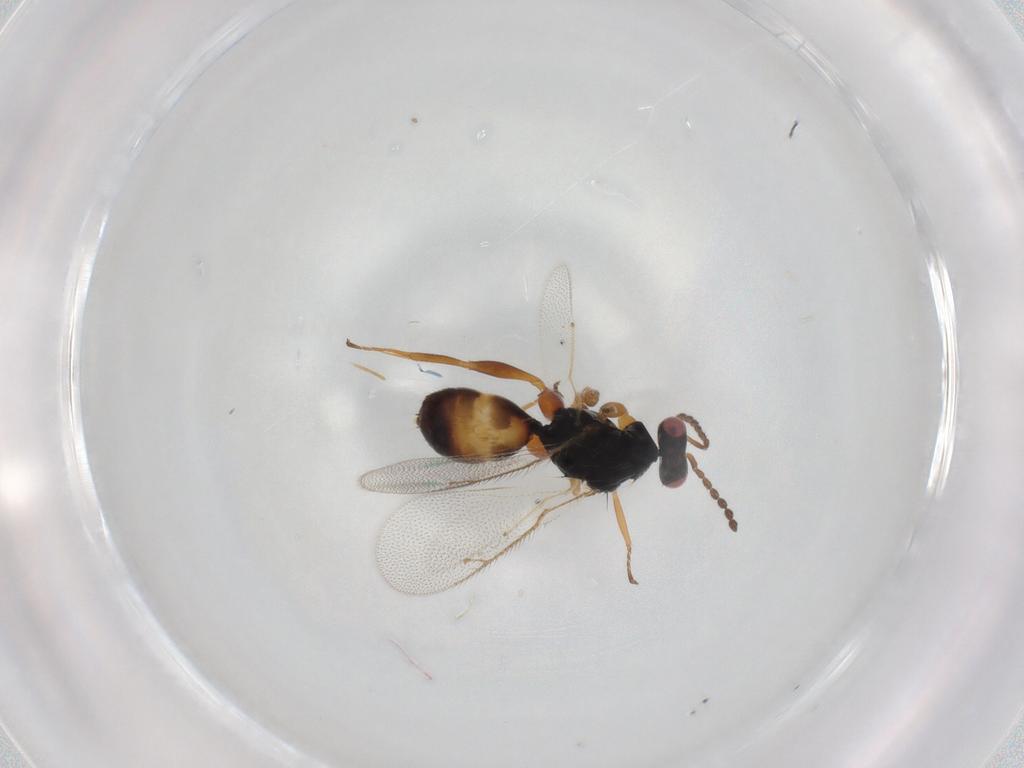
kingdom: Animalia
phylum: Arthropoda
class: Insecta
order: Hymenoptera
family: Eulophidae
